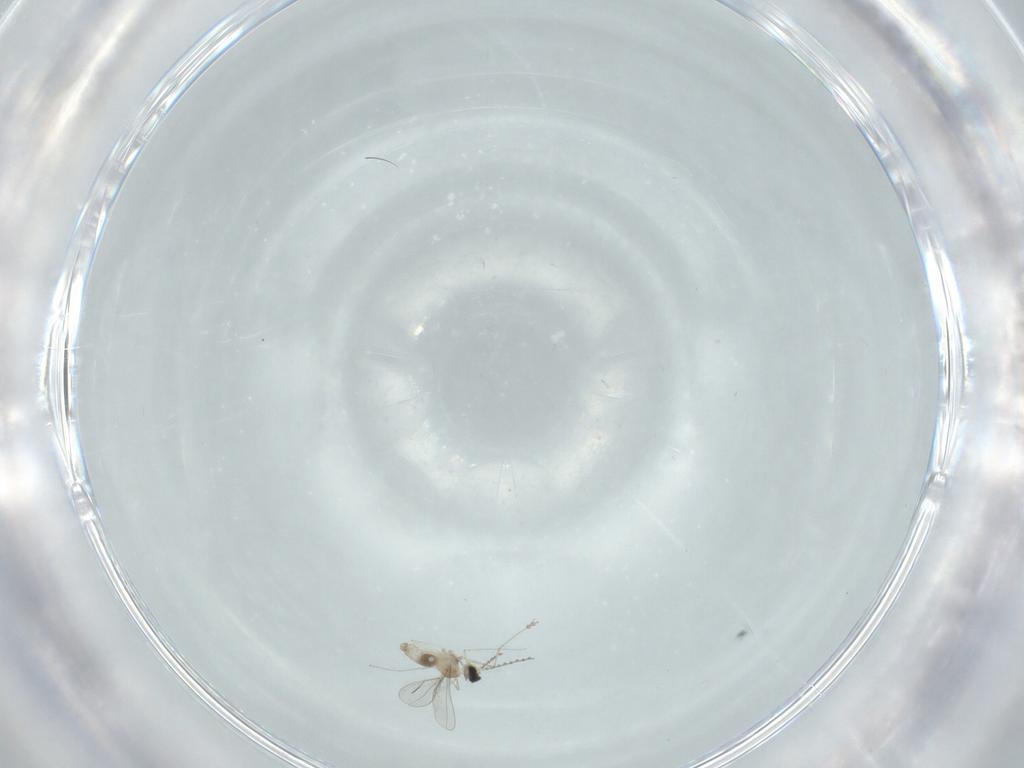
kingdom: Animalia
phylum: Arthropoda
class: Insecta
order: Diptera
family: Cecidomyiidae
